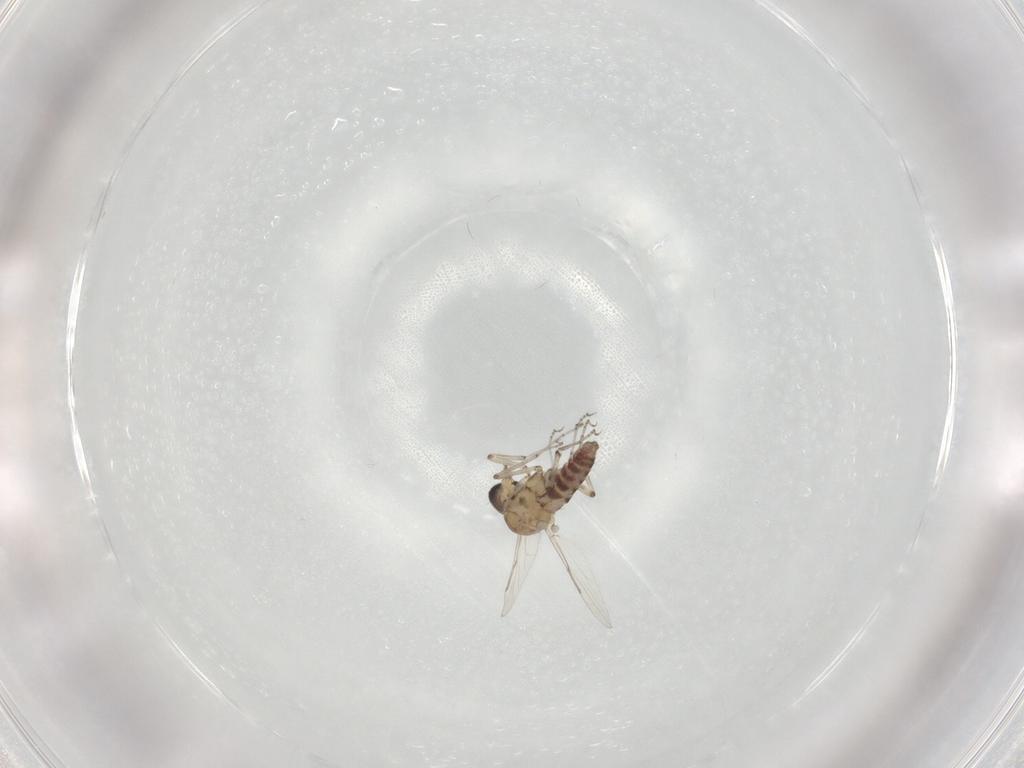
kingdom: Animalia
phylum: Arthropoda
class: Insecta
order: Diptera
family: Ceratopogonidae
